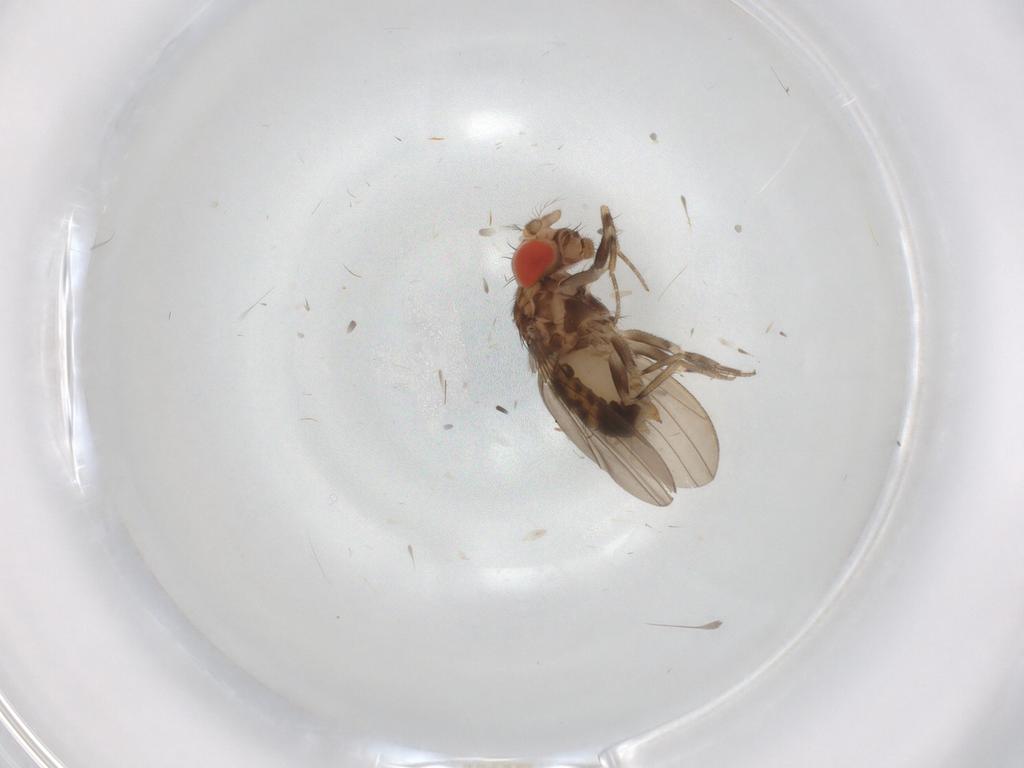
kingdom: Animalia
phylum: Arthropoda
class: Insecta
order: Diptera
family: Drosophilidae
